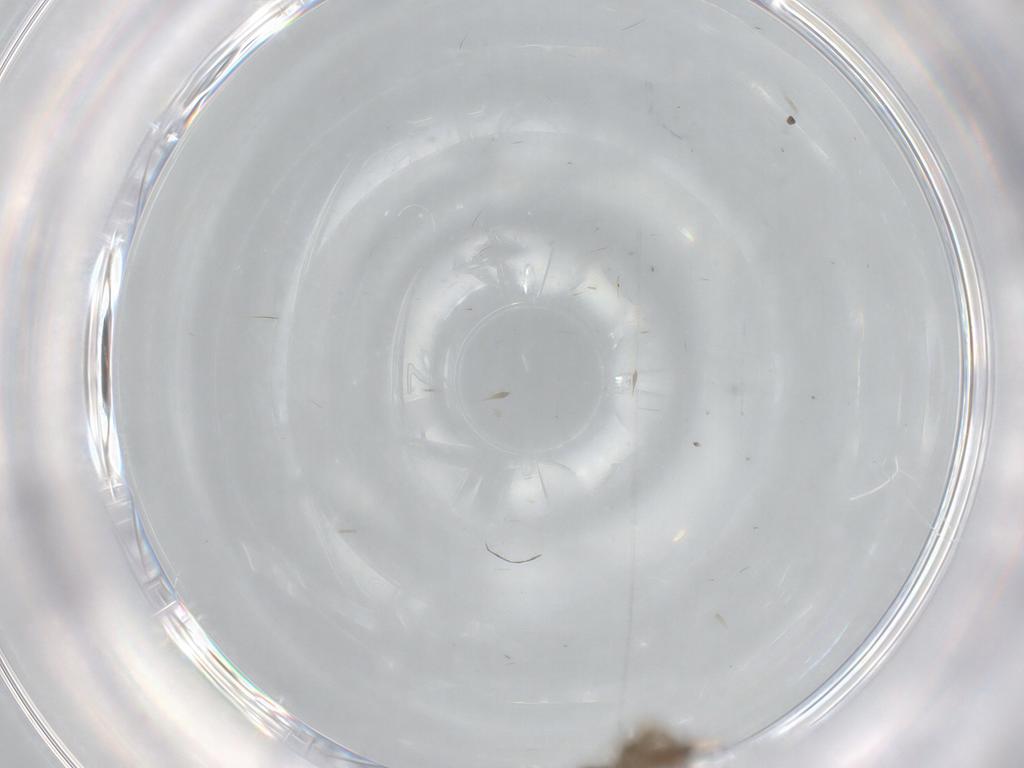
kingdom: Animalia
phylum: Arthropoda
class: Insecta
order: Diptera
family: Phoridae
